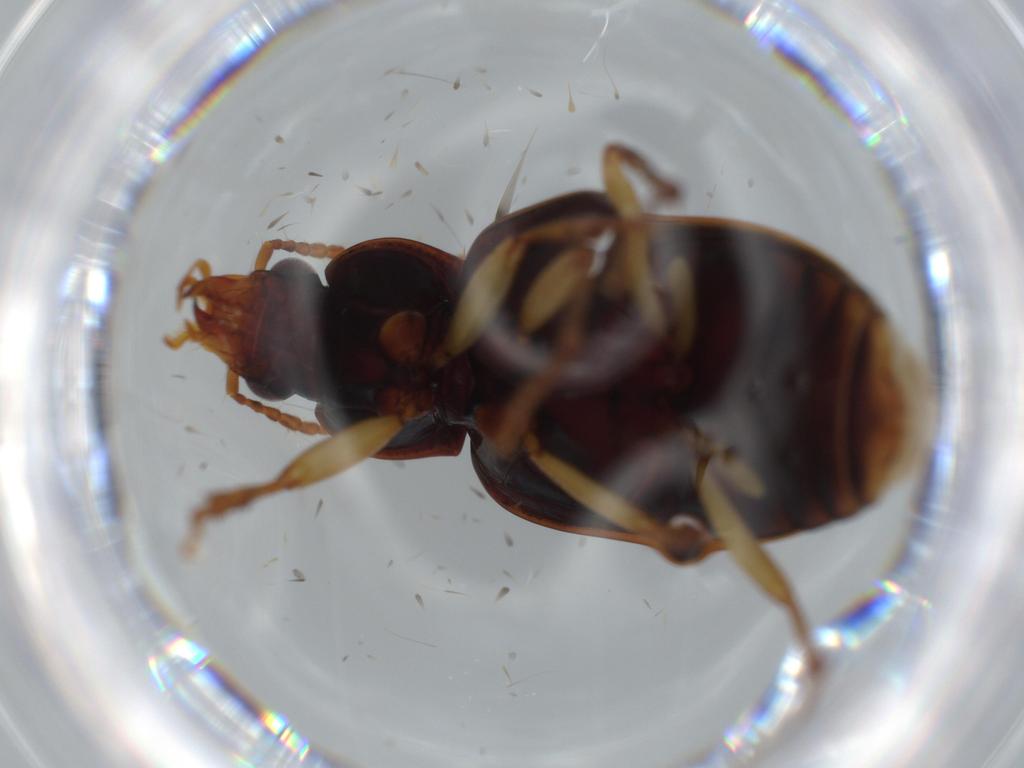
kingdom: Animalia
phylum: Arthropoda
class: Insecta
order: Coleoptera
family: Carabidae
